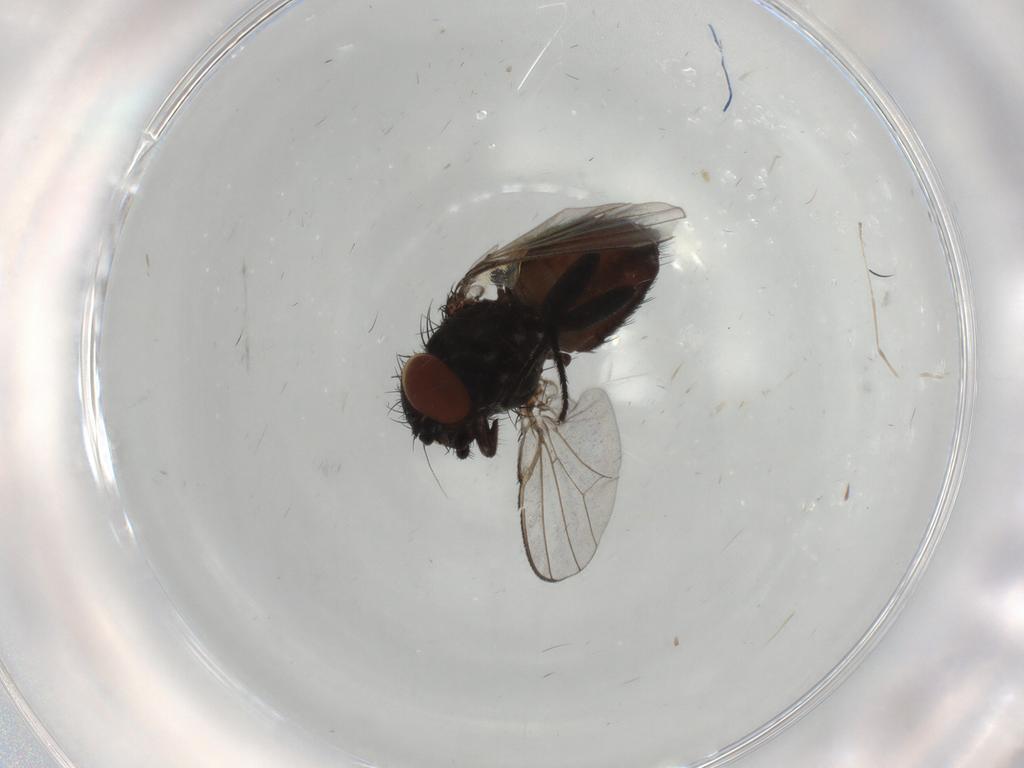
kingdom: Animalia
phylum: Arthropoda
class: Insecta
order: Diptera
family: Milichiidae
